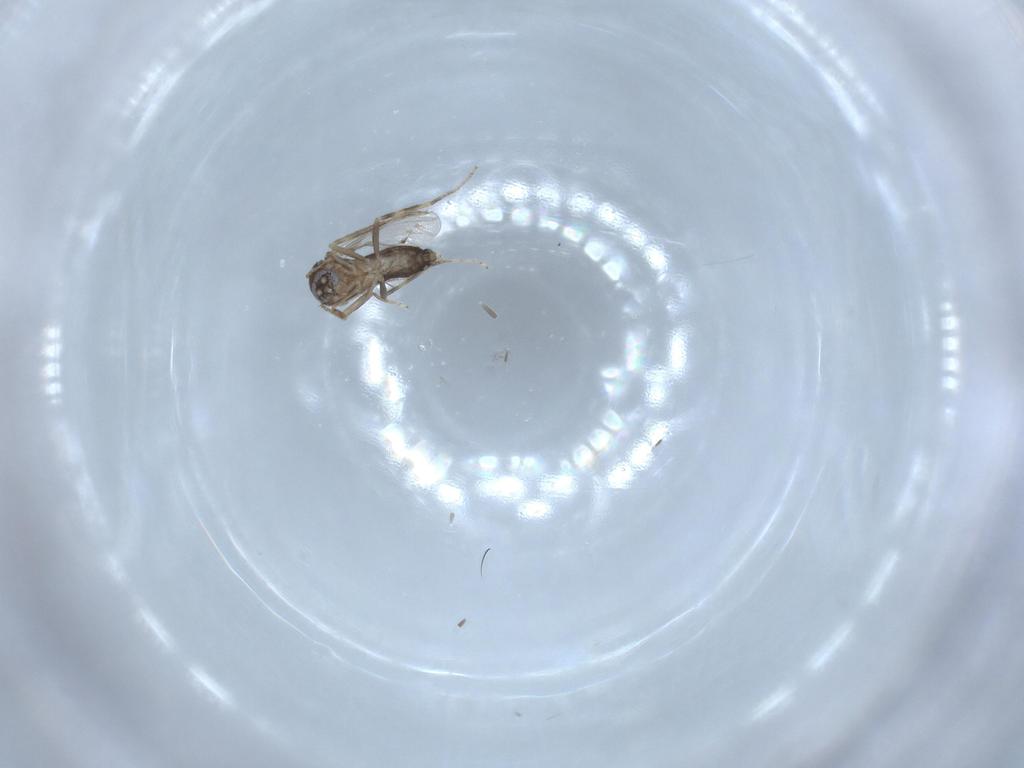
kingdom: Animalia
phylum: Arthropoda
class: Insecta
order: Diptera
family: Ceratopogonidae
